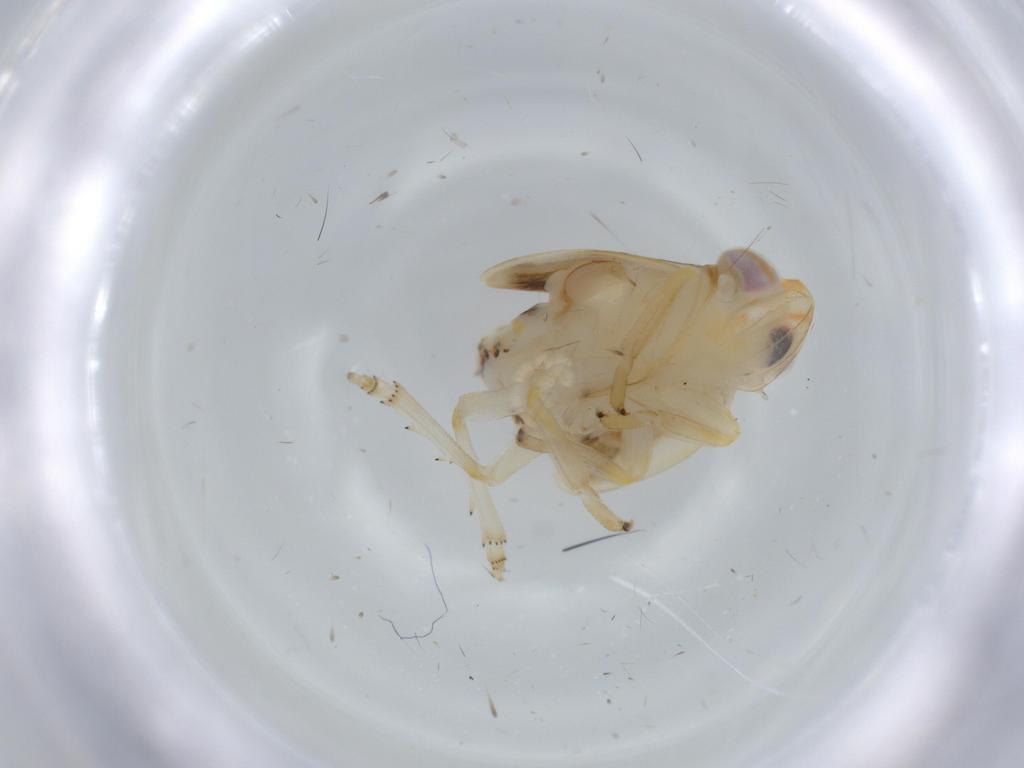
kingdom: Animalia
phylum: Arthropoda
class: Insecta
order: Hemiptera
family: Nogodinidae
